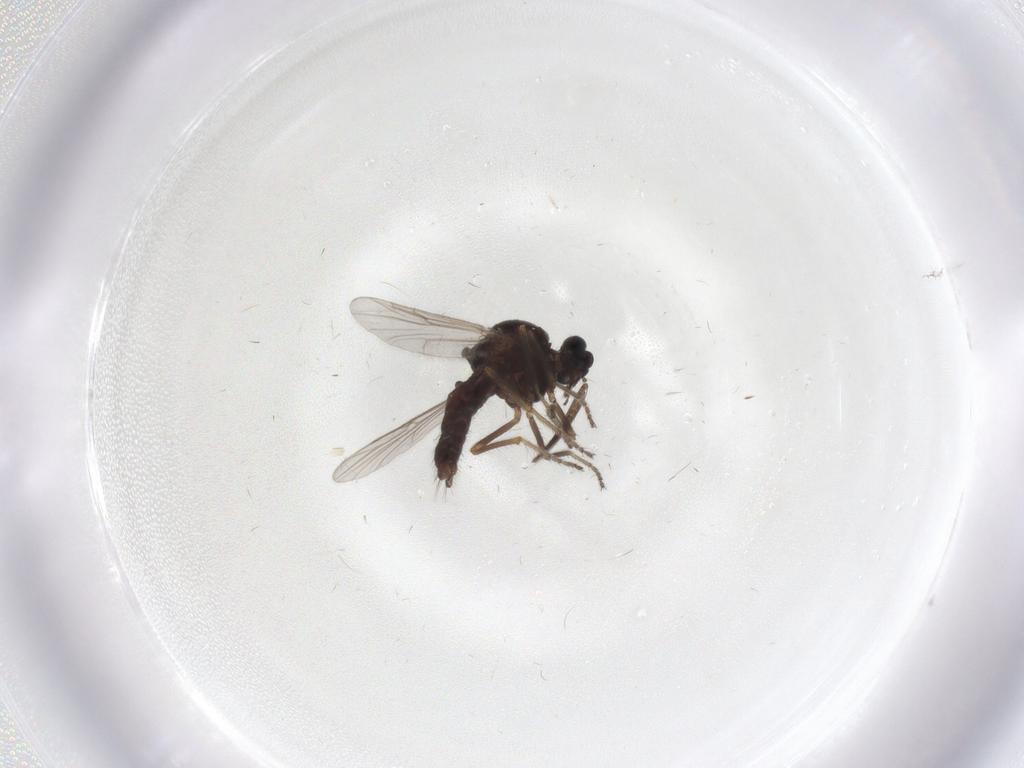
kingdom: Animalia
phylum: Arthropoda
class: Insecta
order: Diptera
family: Ceratopogonidae
